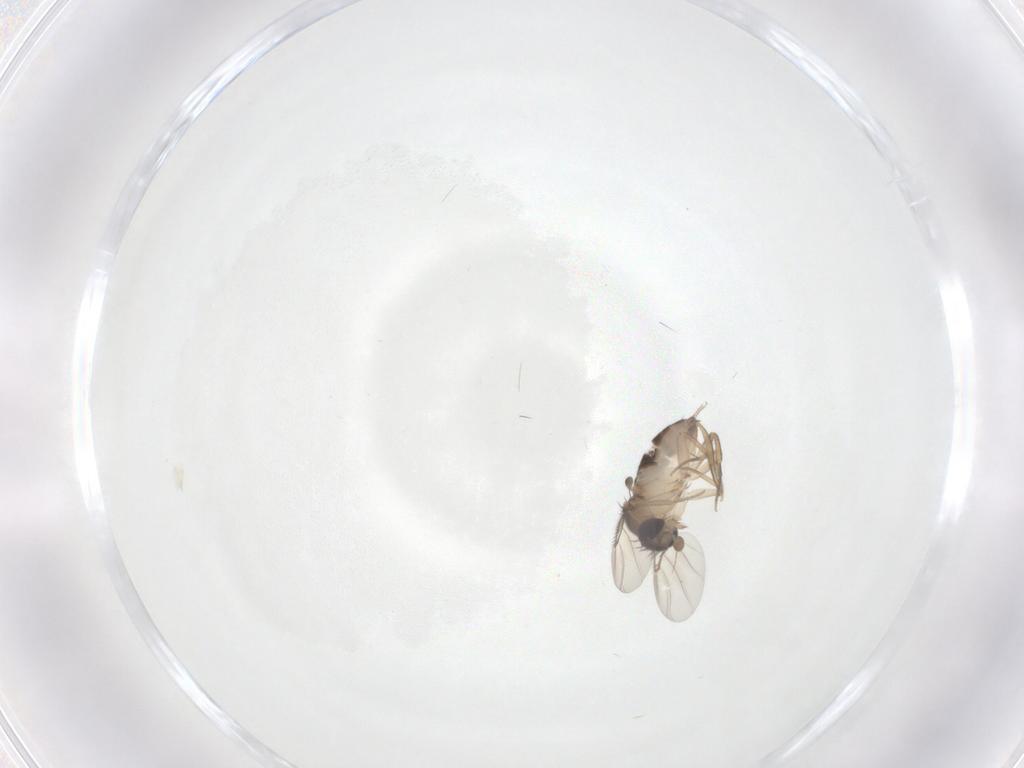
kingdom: Animalia
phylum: Arthropoda
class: Insecta
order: Diptera
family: Phoridae
